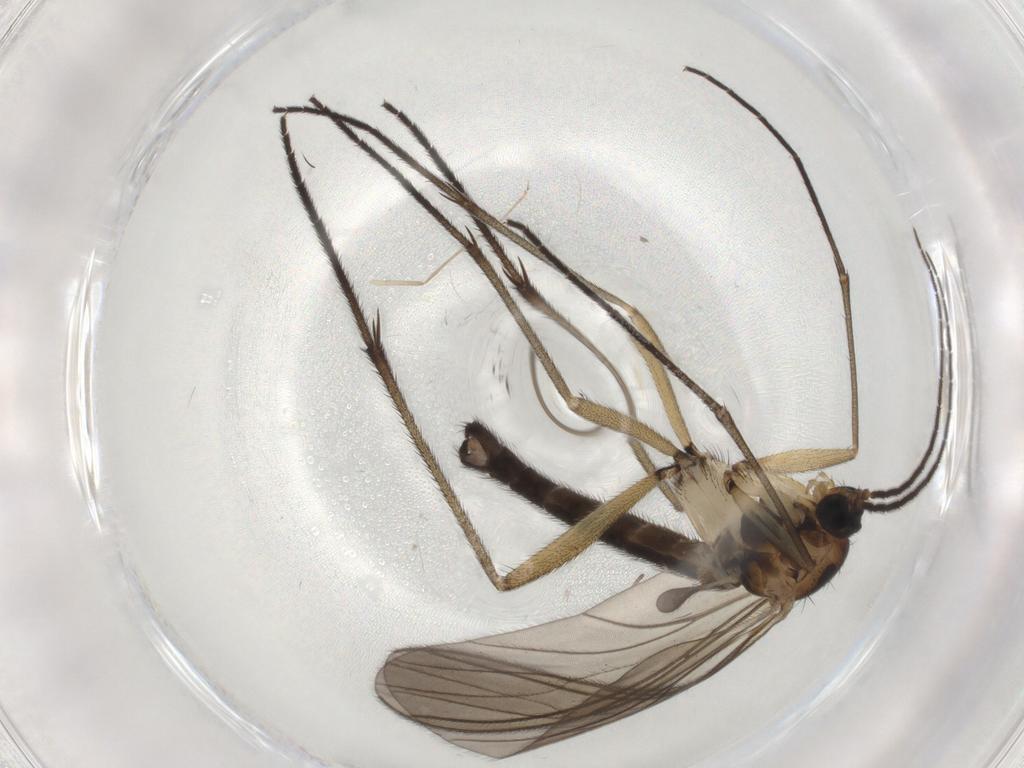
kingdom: Animalia
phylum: Arthropoda
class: Insecta
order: Diptera
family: Sciaridae
